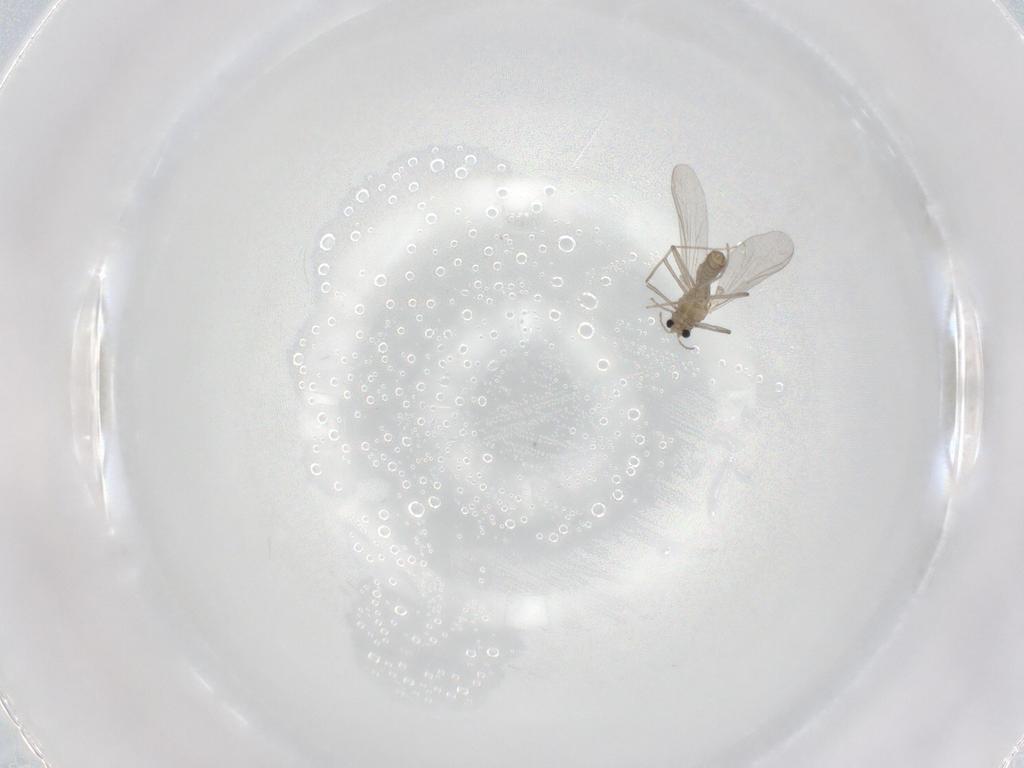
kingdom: Animalia
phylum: Arthropoda
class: Insecta
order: Diptera
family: Chironomidae
